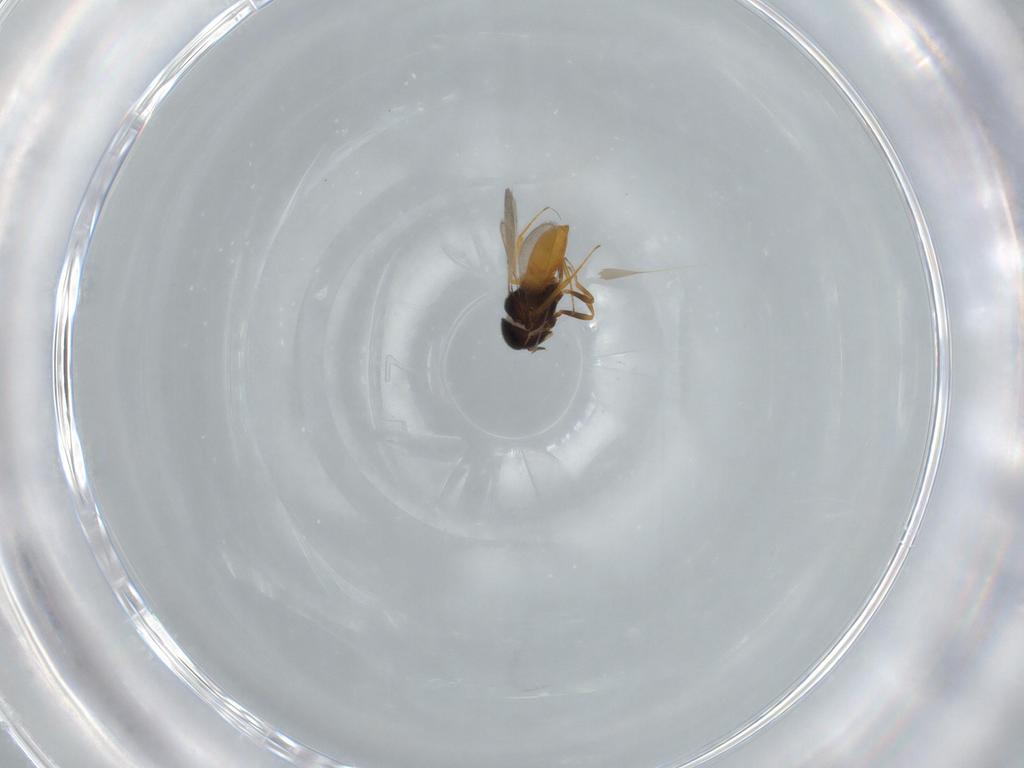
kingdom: Animalia
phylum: Arthropoda
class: Insecta
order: Hymenoptera
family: Scelionidae
